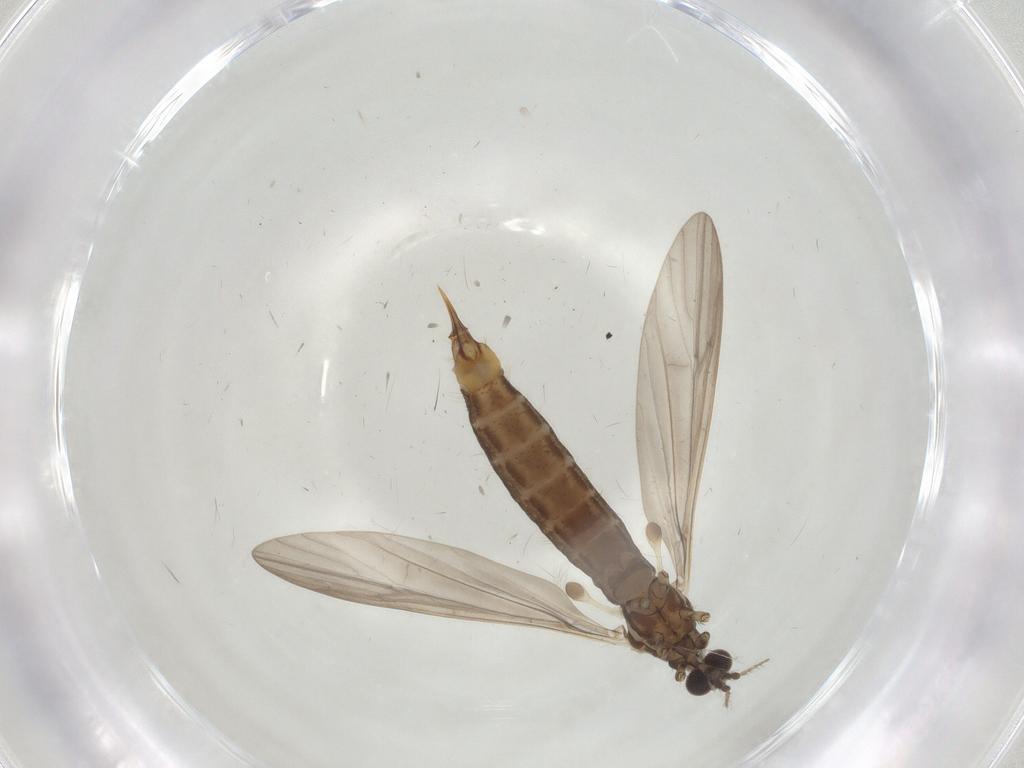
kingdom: Animalia
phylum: Arthropoda
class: Insecta
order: Diptera
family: Limoniidae
